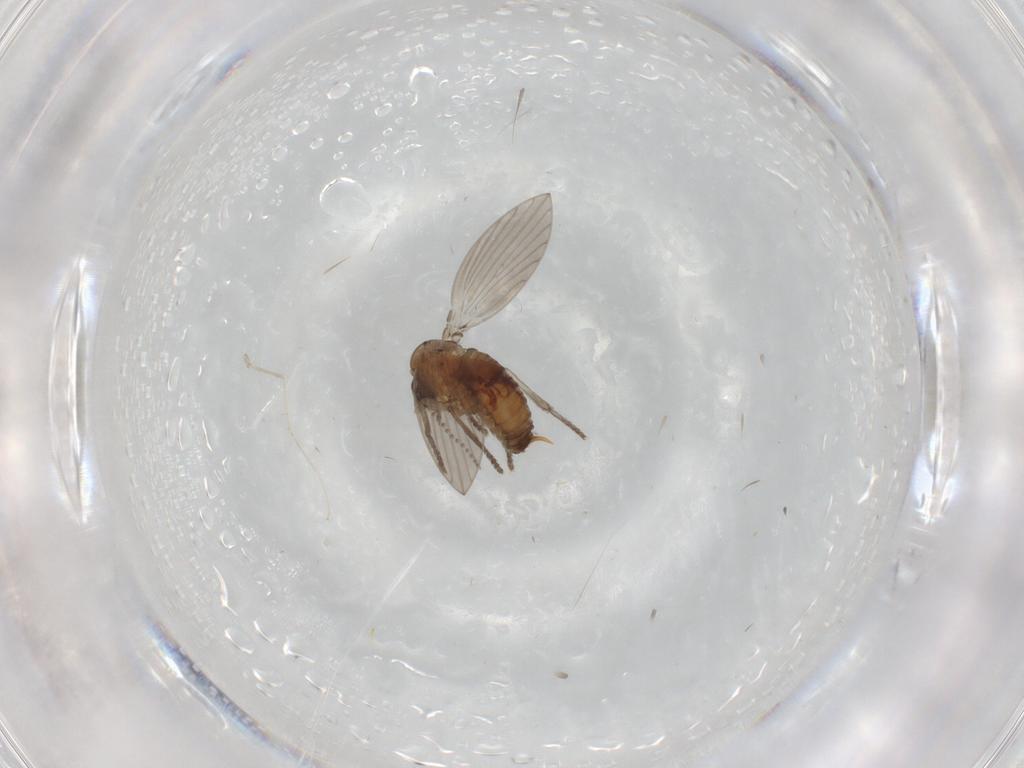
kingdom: Animalia
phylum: Arthropoda
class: Insecta
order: Diptera
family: Psychodidae
